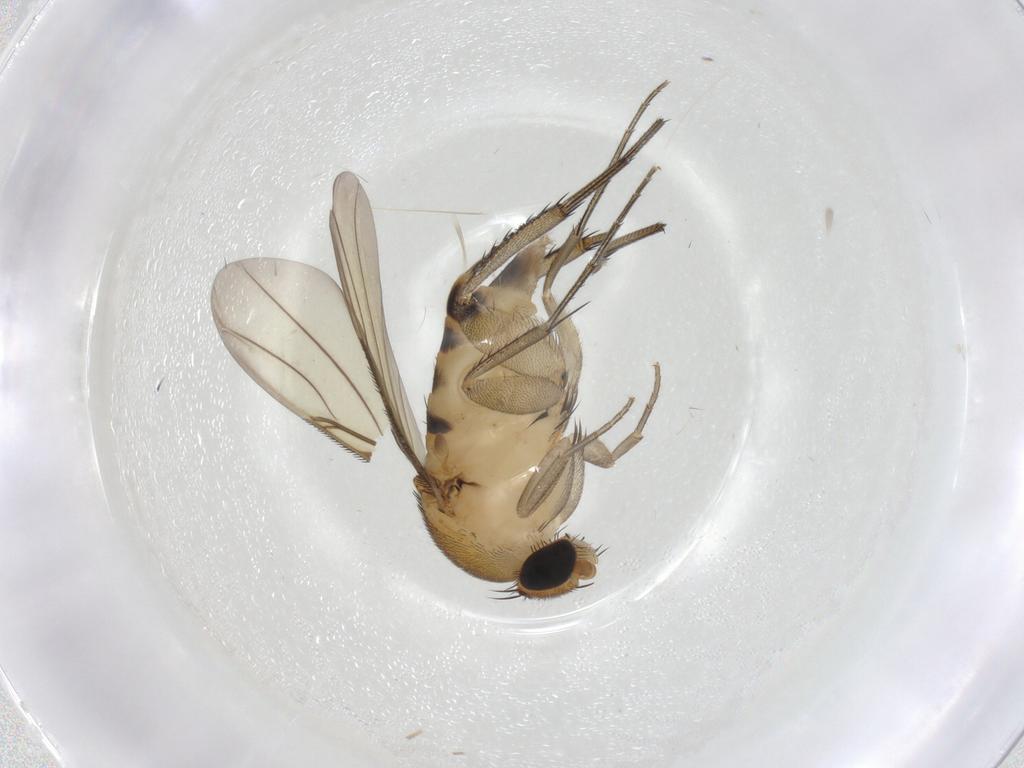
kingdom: Animalia
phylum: Arthropoda
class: Insecta
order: Diptera
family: Phoridae
